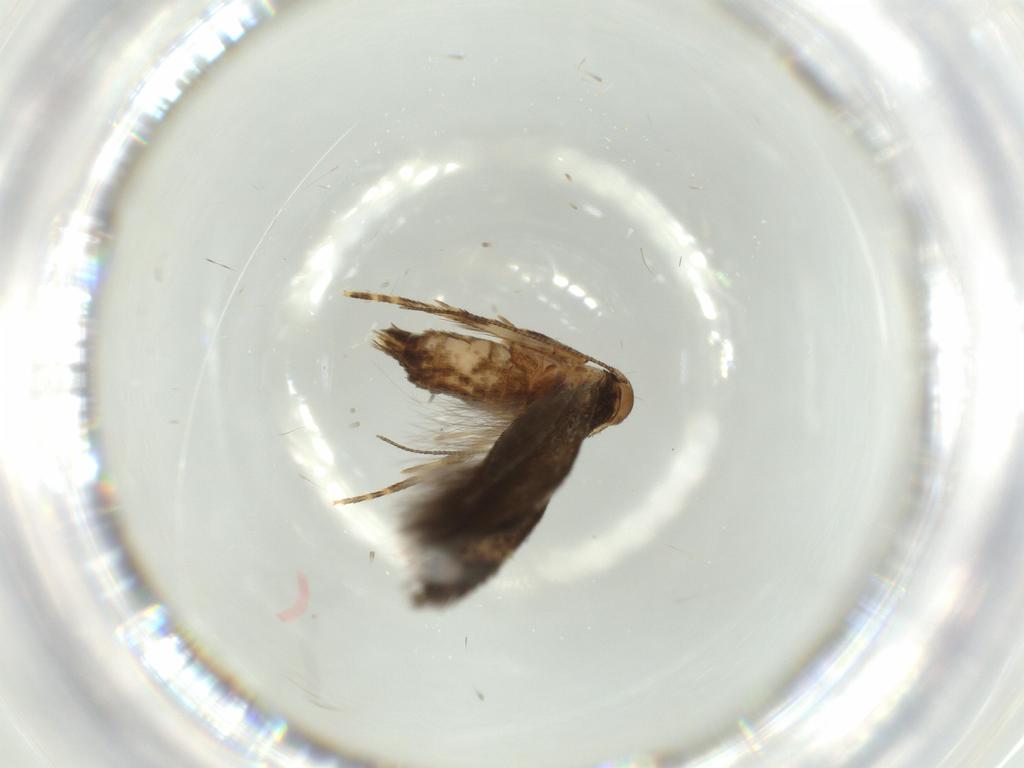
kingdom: Animalia
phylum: Arthropoda
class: Insecta
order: Lepidoptera
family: Gelechiidae
